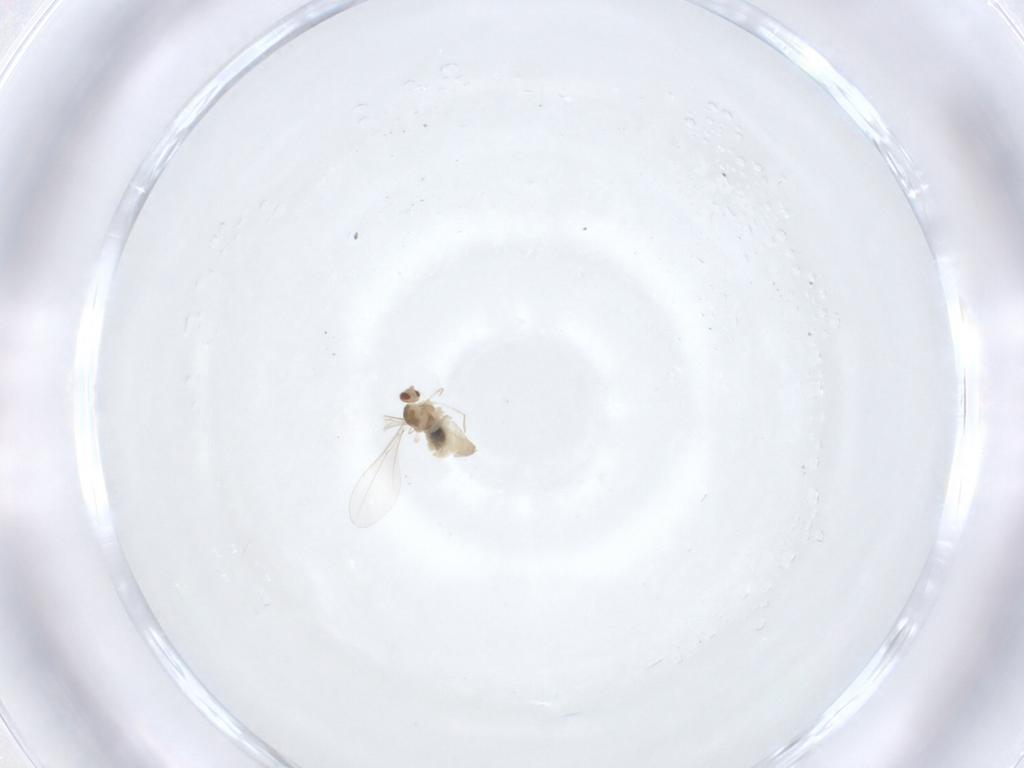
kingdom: Animalia
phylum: Arthropoda
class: Insecta
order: Diptera
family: Cecidomyiidae
